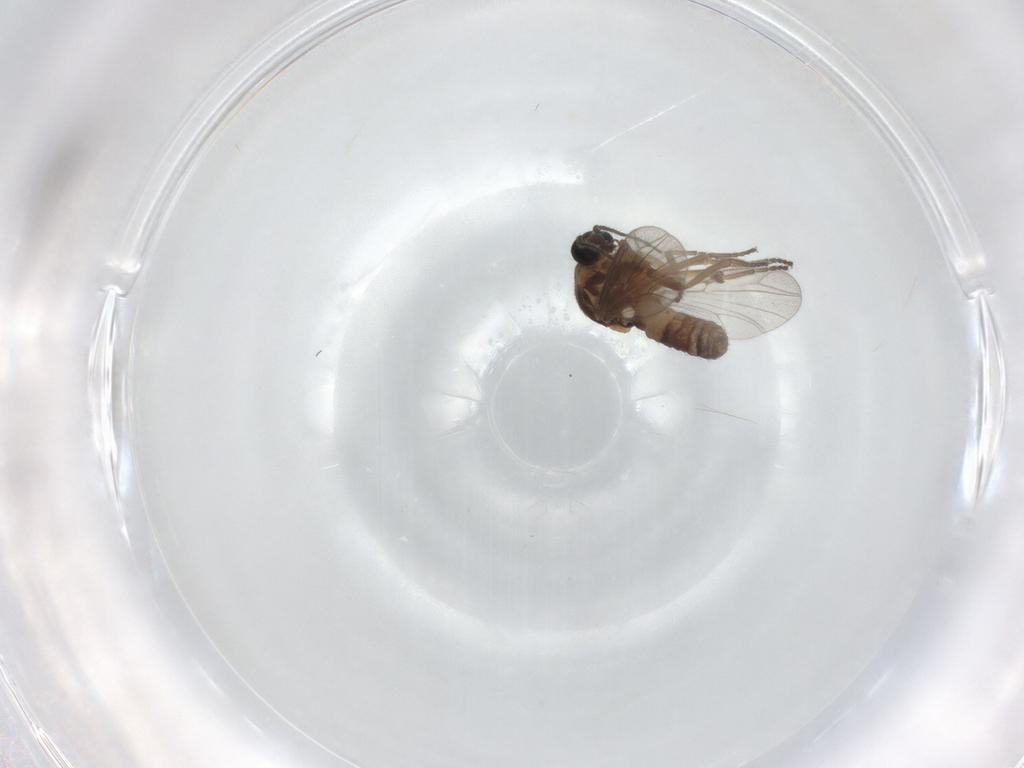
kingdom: Animalia
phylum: Arthropoda
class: Insecta
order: Diptera
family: Ceratopogonidae
